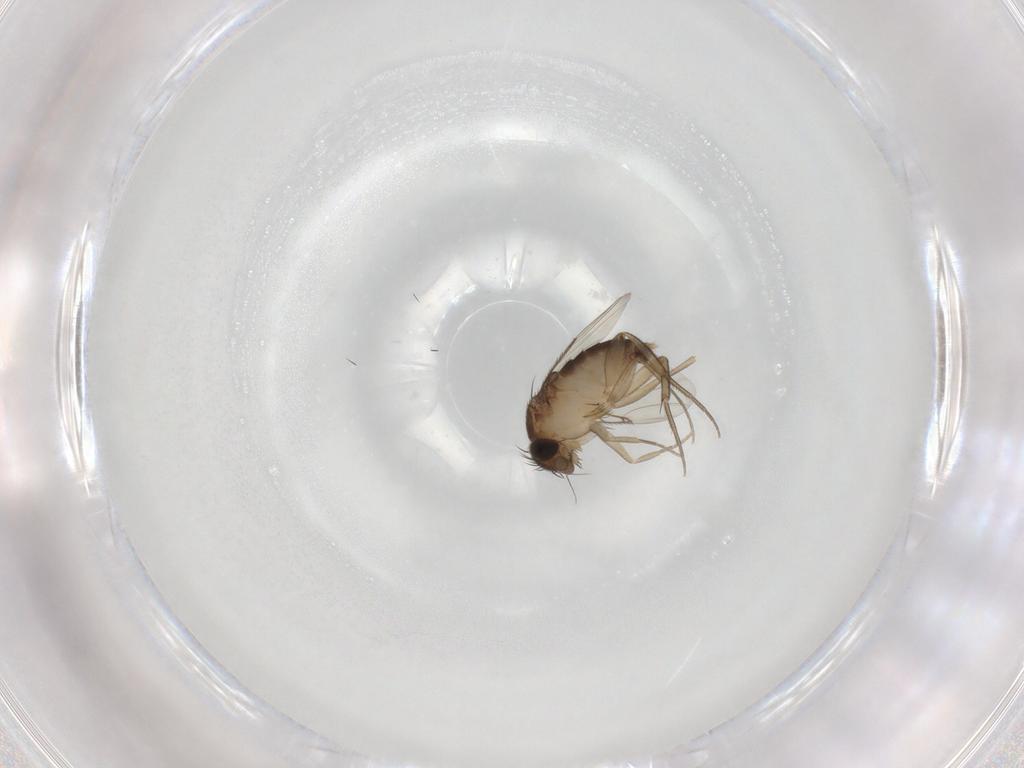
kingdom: Animalia
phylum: Arthropoda
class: Insecta
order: Diptera
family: Phoridae
